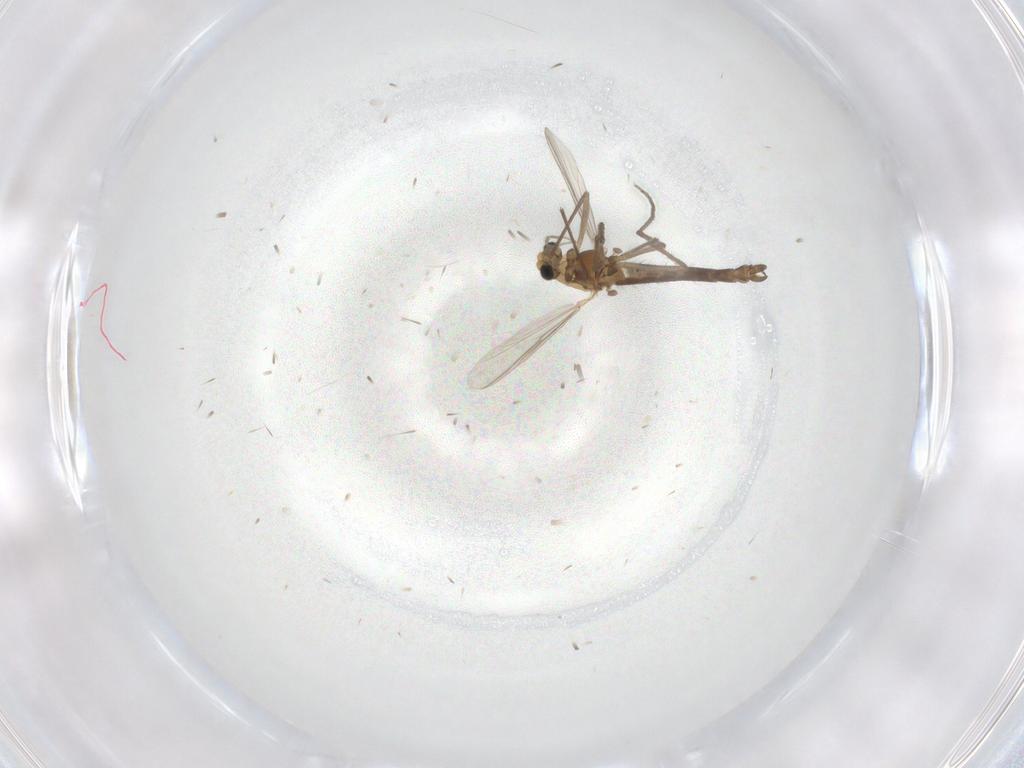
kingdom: Animalia
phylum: Arthropoda
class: Insecta
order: Diptera
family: Chironomidae
